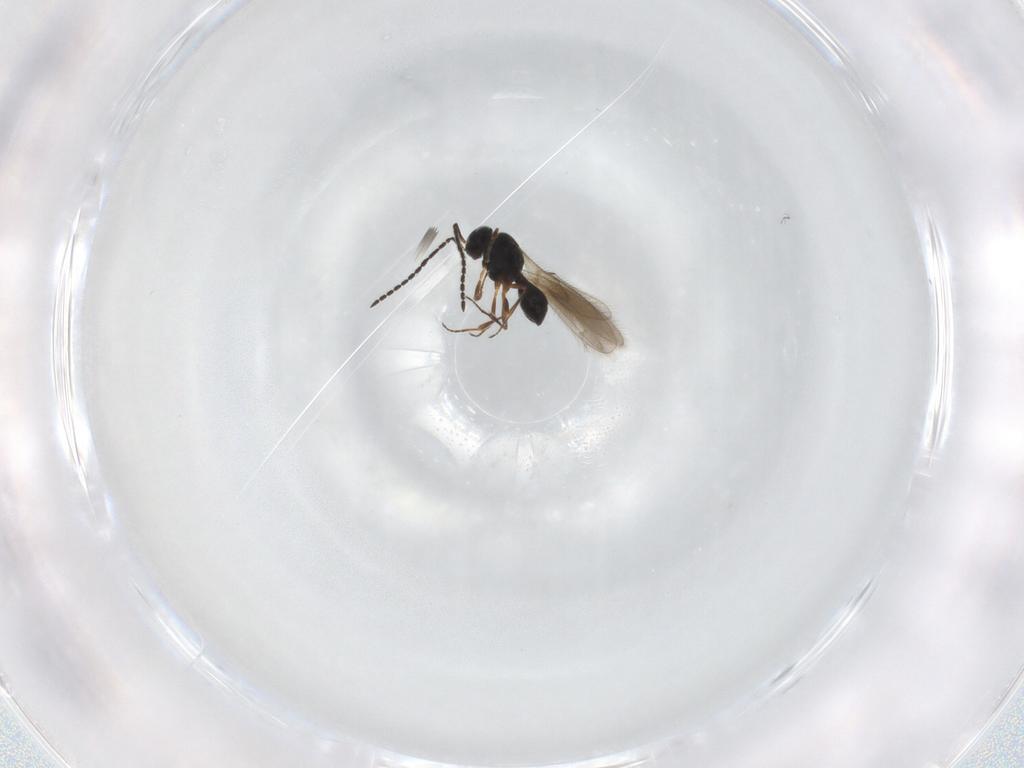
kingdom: Animalia
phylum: Arthropoda
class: Insecta
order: Hymenoptera
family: Scelionidae
